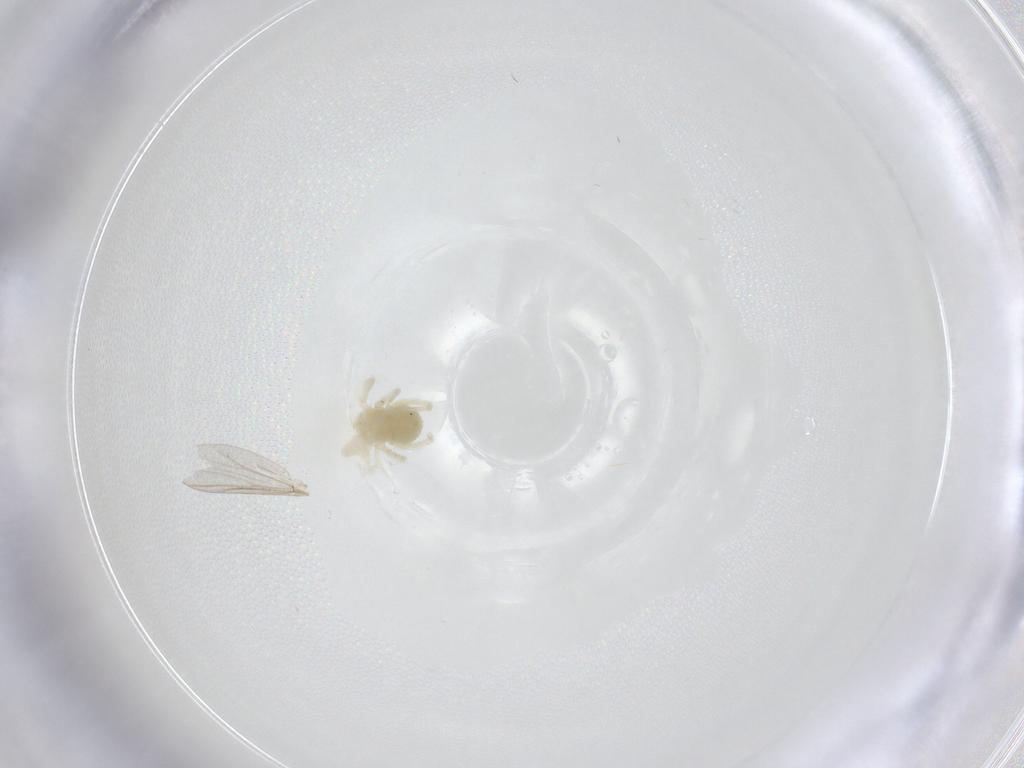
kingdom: Animalia
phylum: Arthropoda
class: Arachnida
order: Trombidiformes
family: Anystidae
